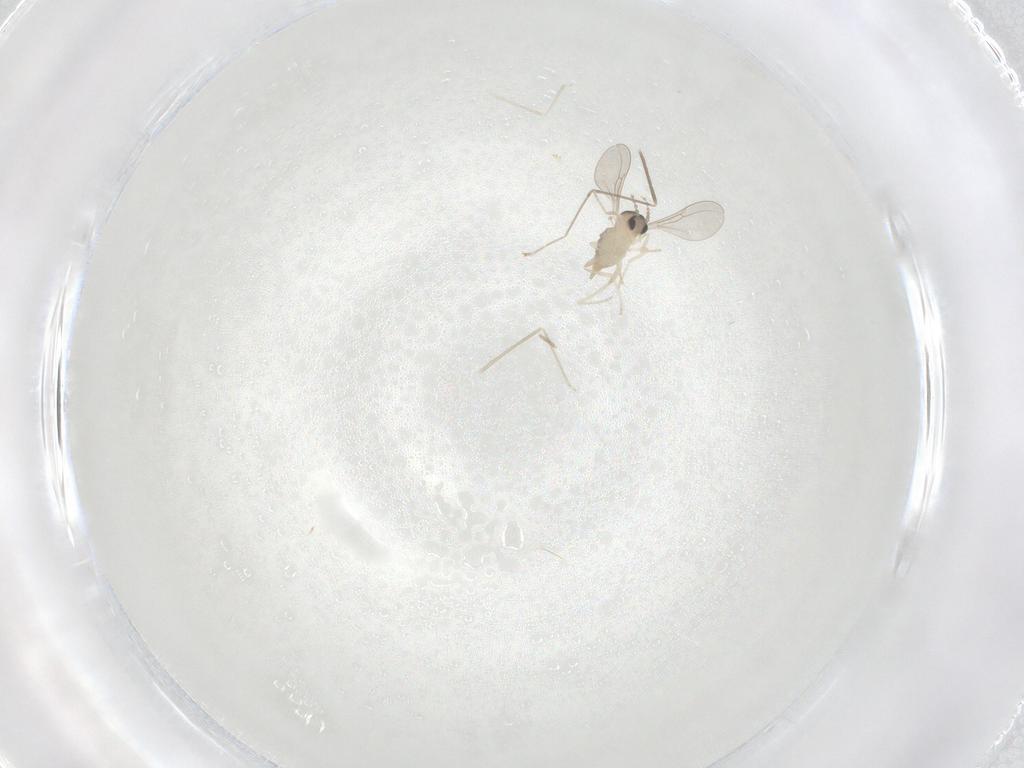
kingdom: Animalia
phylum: Arthropoda
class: Insecta
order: Diptera
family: Cecidomyiidae
